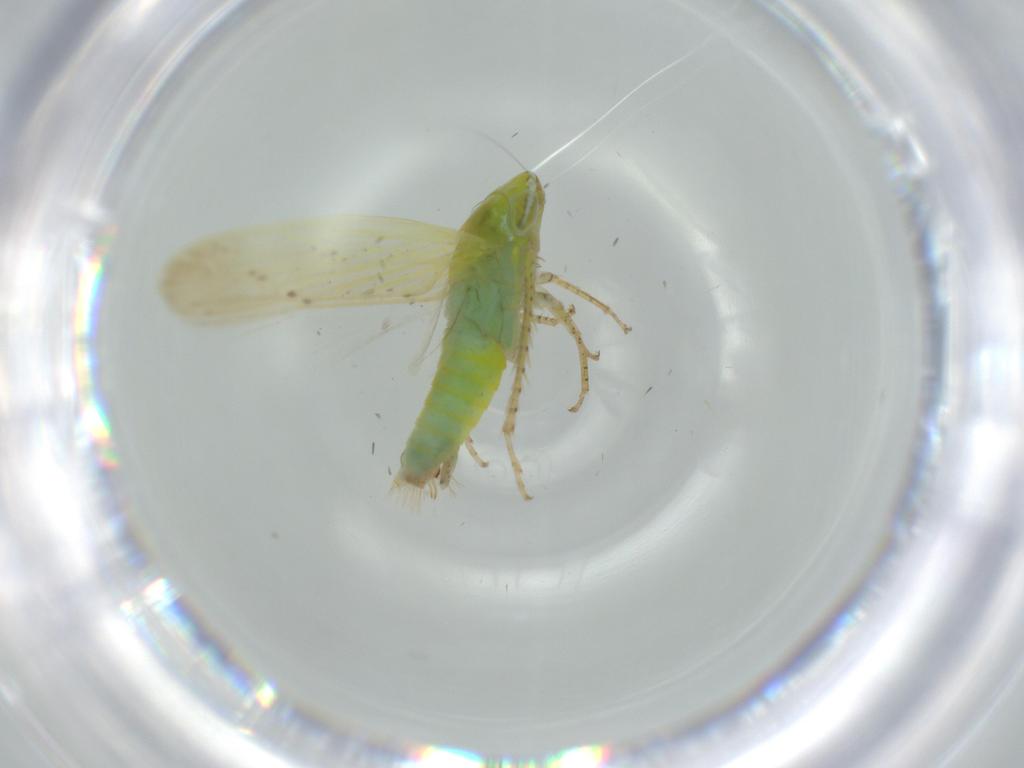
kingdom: Animalia
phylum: Arthropoda
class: Insecta
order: Hemiptera
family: Cicadellidae
